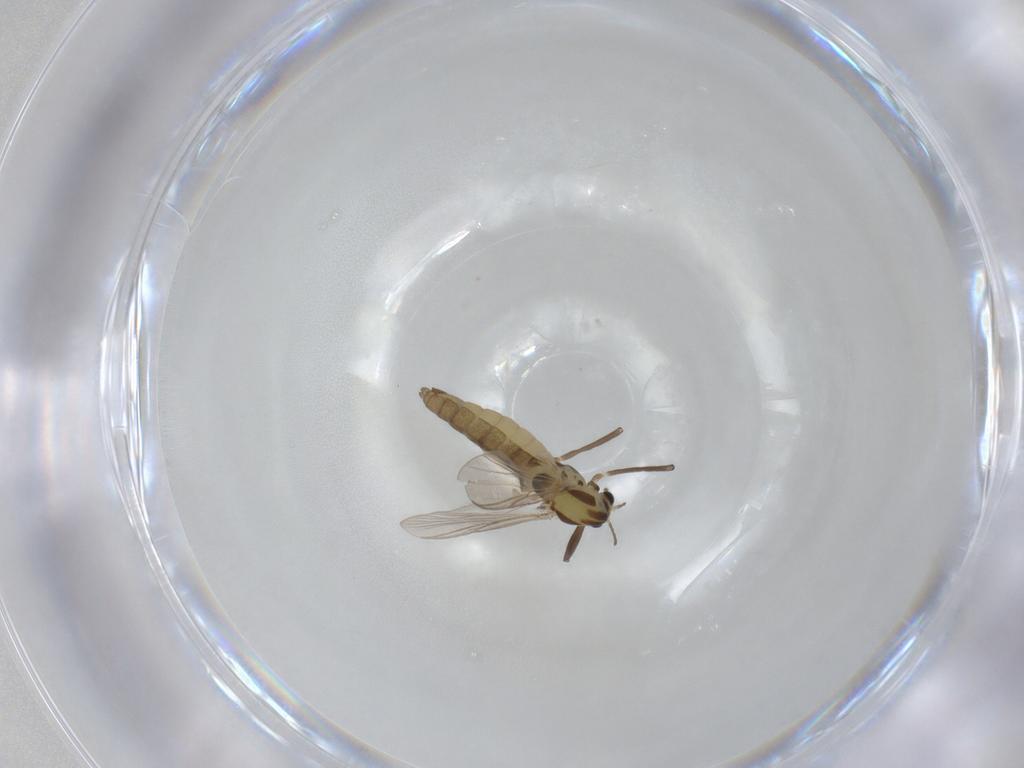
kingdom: Animalia
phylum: Arthropoda
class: Insecta
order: Diptera
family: Chironomidae
